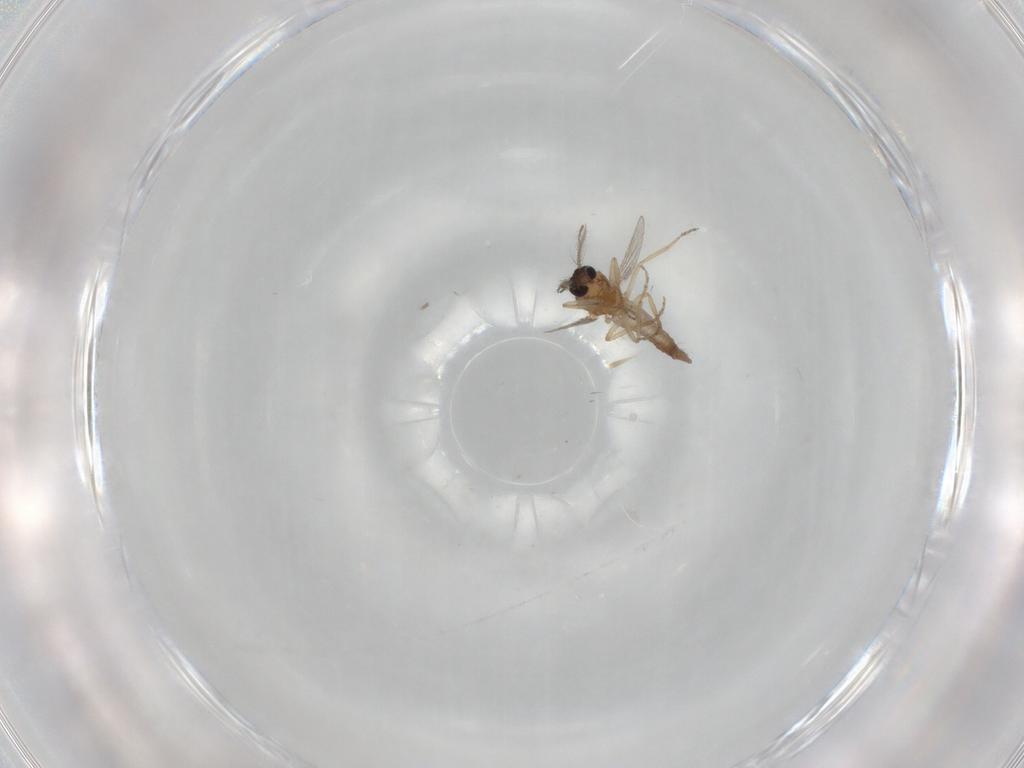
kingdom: Animalia
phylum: Arthropoda
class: Insecta
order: Diptera
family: Ceratopogonidae
